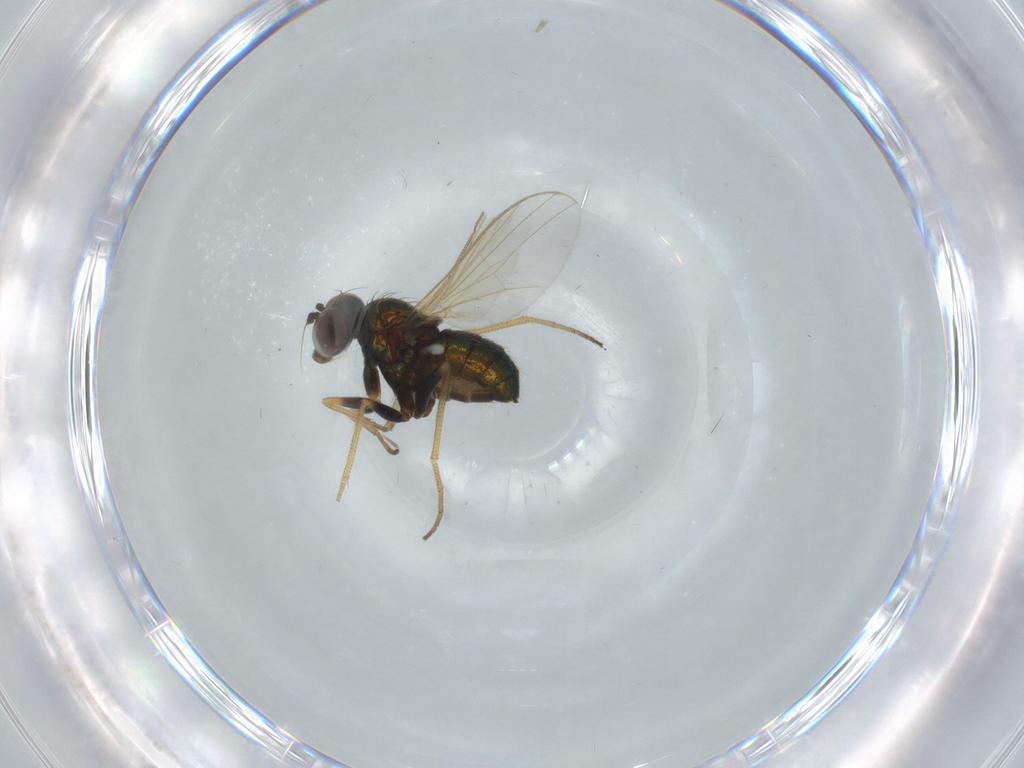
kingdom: Animalia
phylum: Arthropoda
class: Insecta
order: Diptera
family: Dolichopodidae
